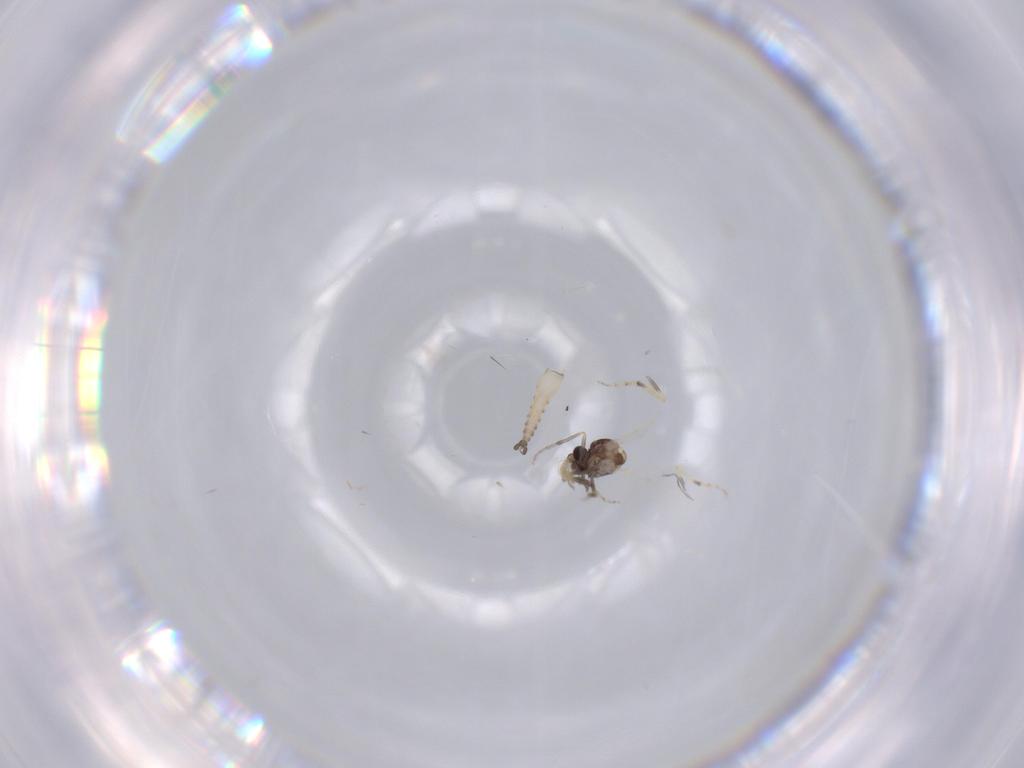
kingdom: Animalia
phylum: Arthropoda
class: Insecta
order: Diptera
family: Sciaridae
